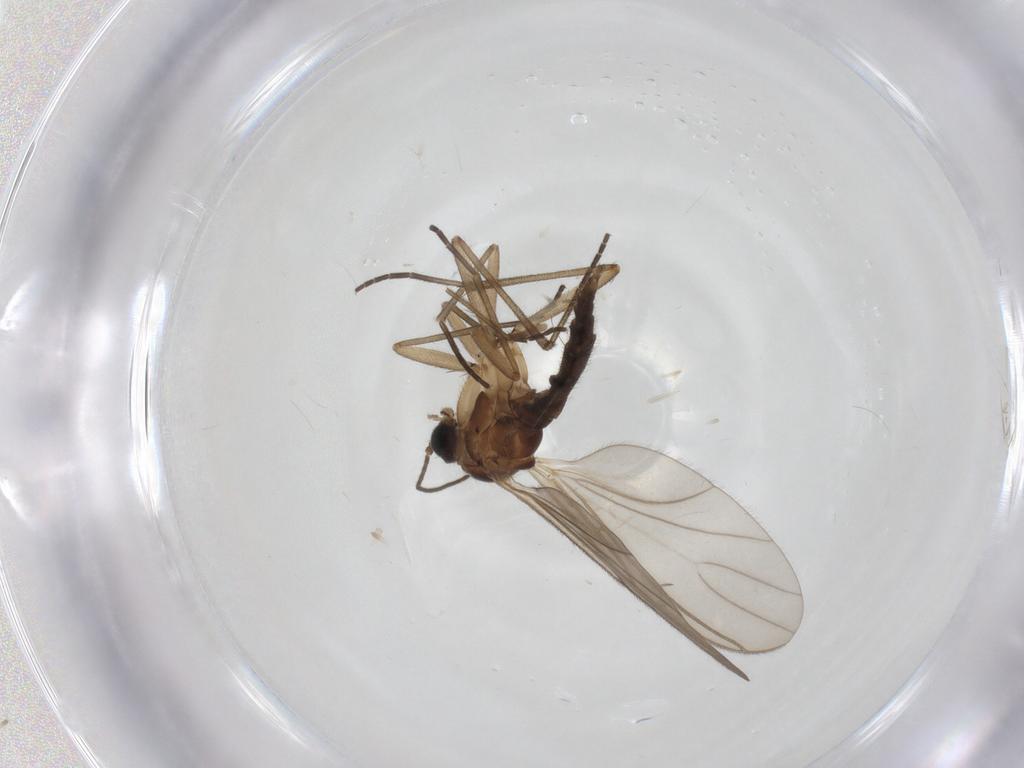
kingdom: Animalia
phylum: Arthropoda
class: Insecta
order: Diptera
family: Sciaridae
